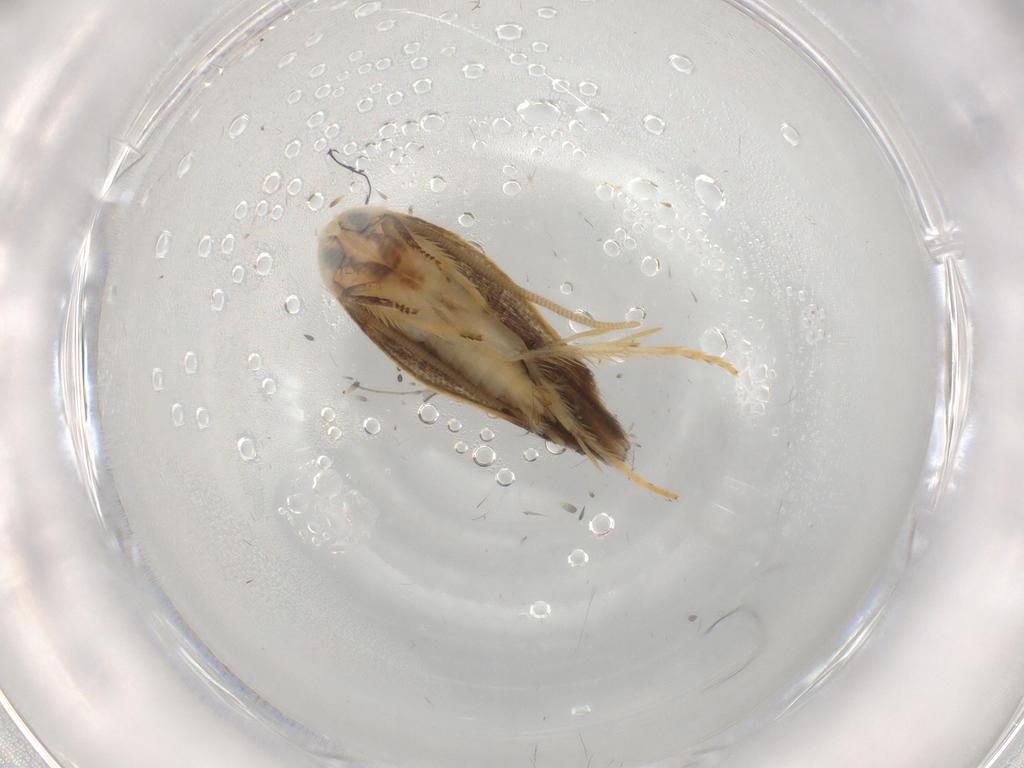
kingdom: Animalia
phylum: Arthropoda
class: Insecta
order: Lepidoptera
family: Opostegidae
